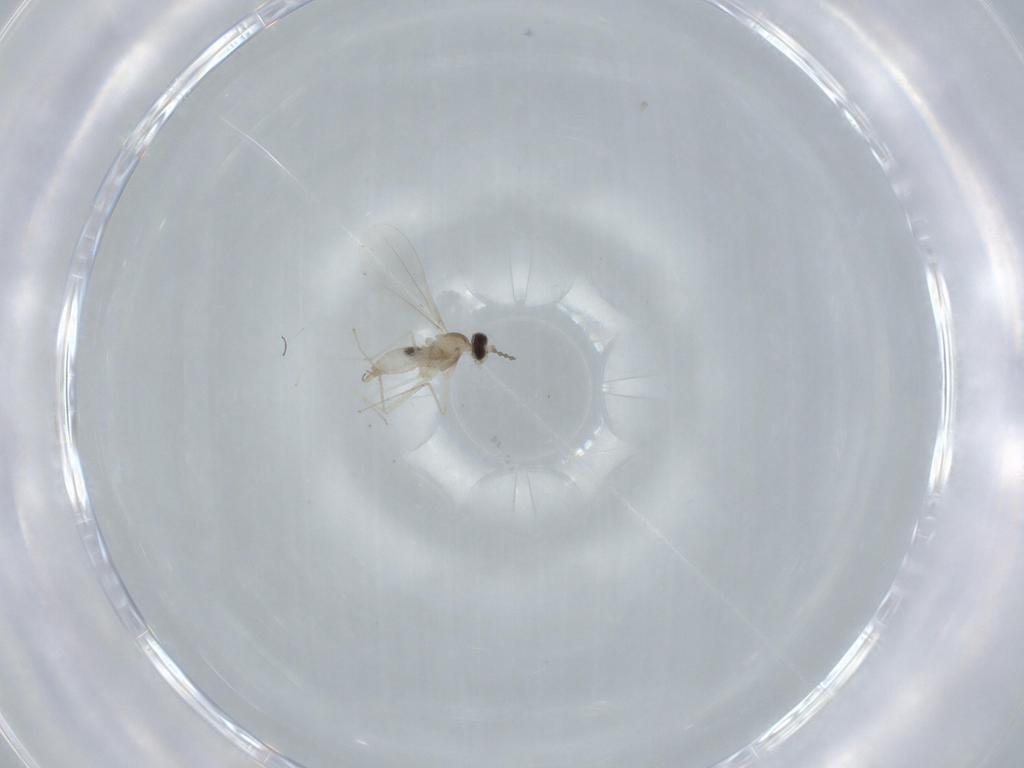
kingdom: Animalia
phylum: Arthropoda
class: Insecta
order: Diptera
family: Cecidomyiidae
